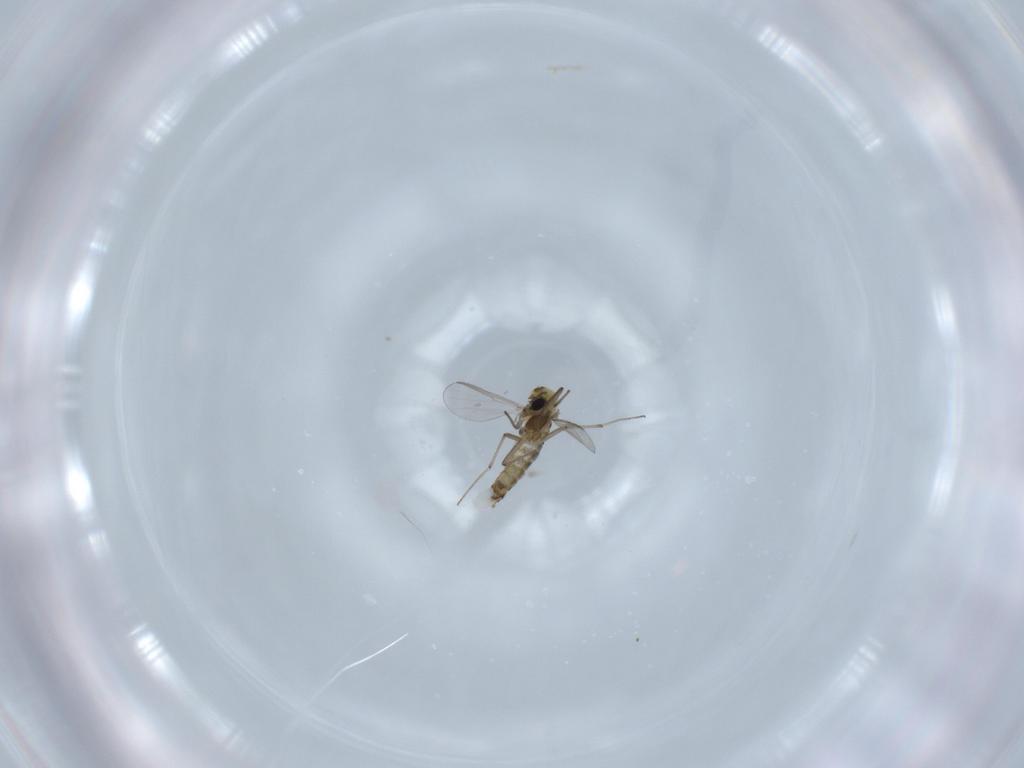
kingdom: Animalia
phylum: Arthropoda
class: Insecta
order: Diptera
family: Chironomidae
